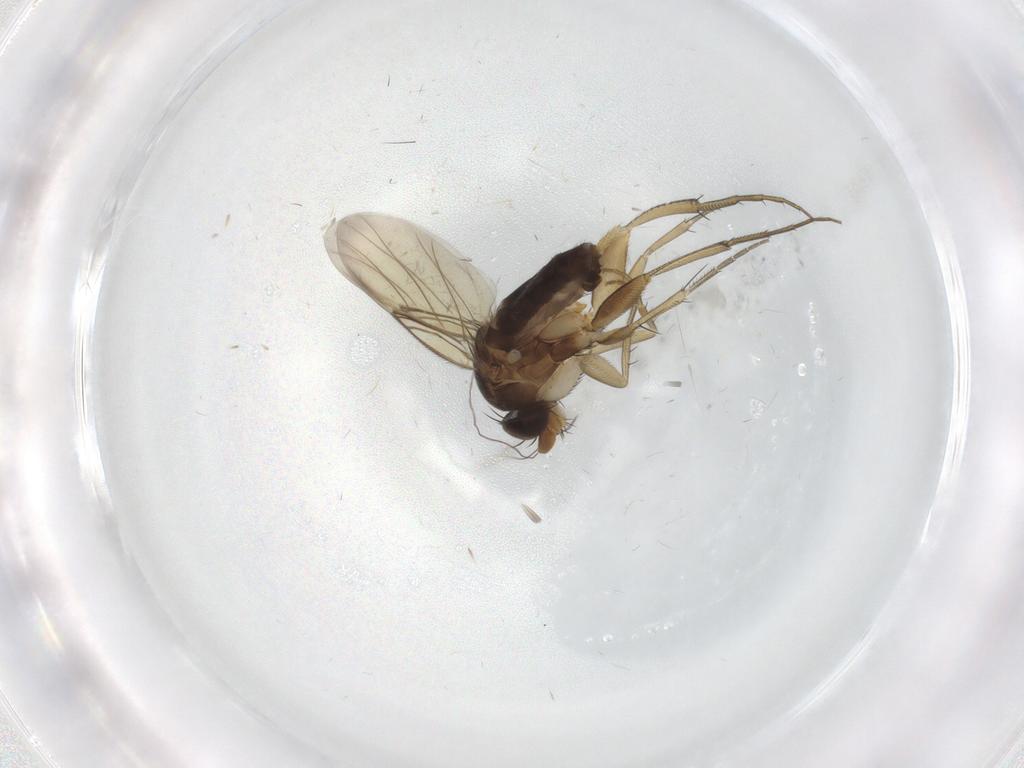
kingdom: Animalia
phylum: Arthropoda
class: Insecta
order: Diptera
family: Phoridae
